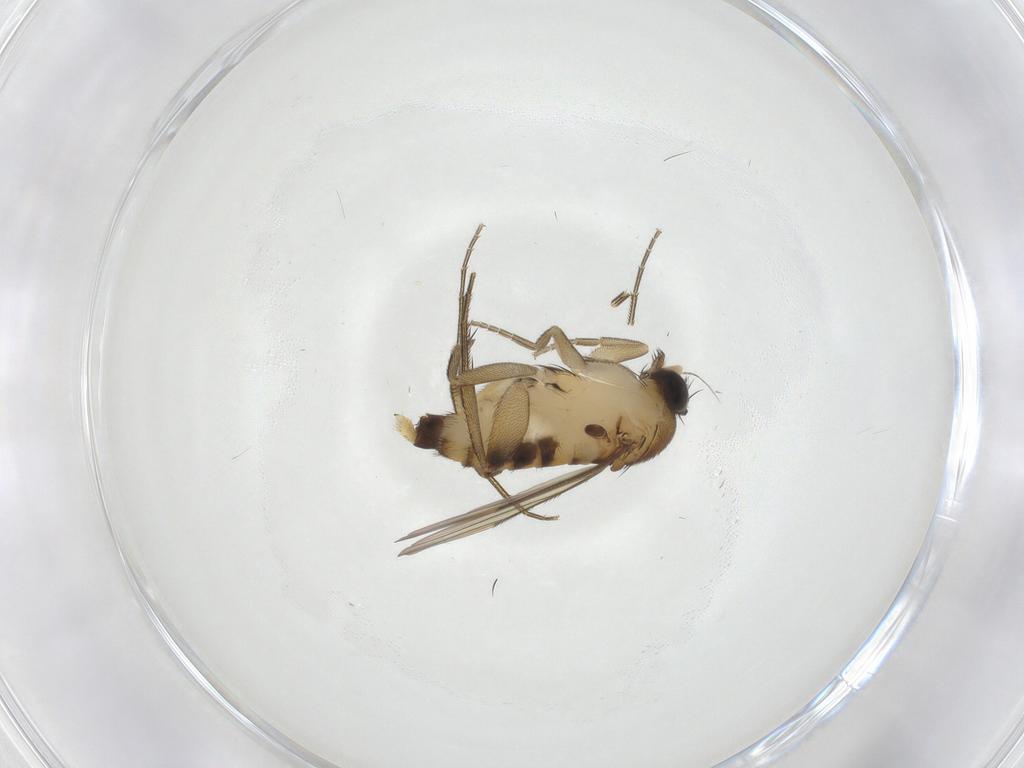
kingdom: Animalia
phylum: Arthropoda
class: Insecta
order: Diptera
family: Phoridae
